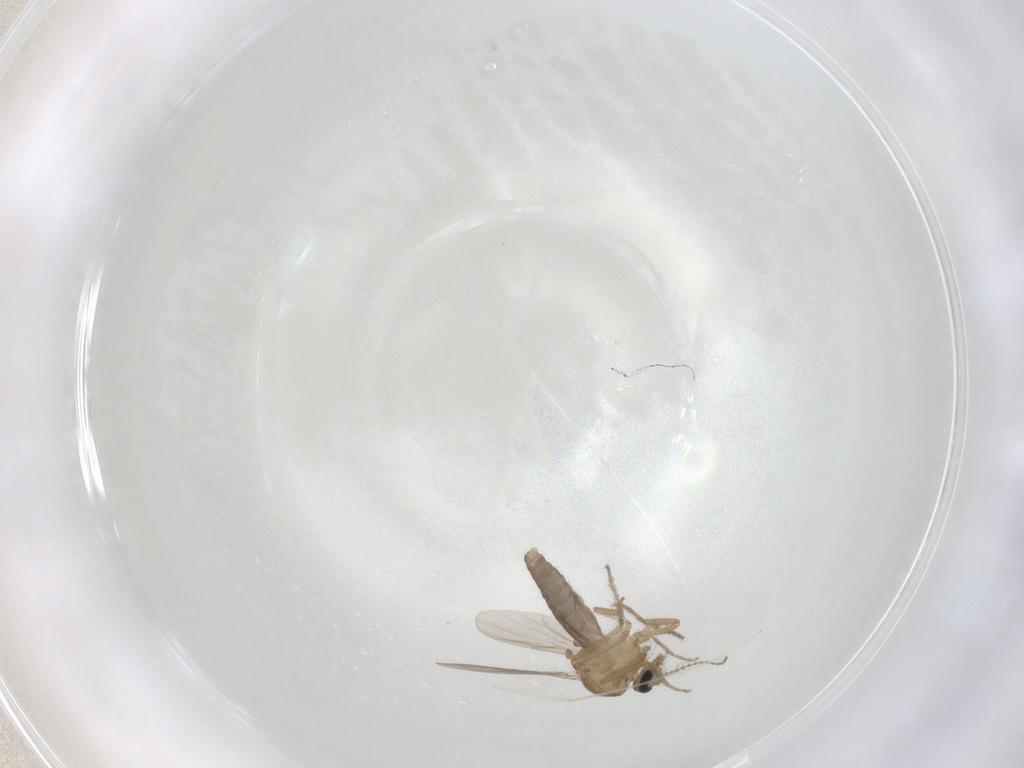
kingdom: Animalia
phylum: Arthropoda
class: Insecta
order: Diptera
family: Ceratopogonidae
